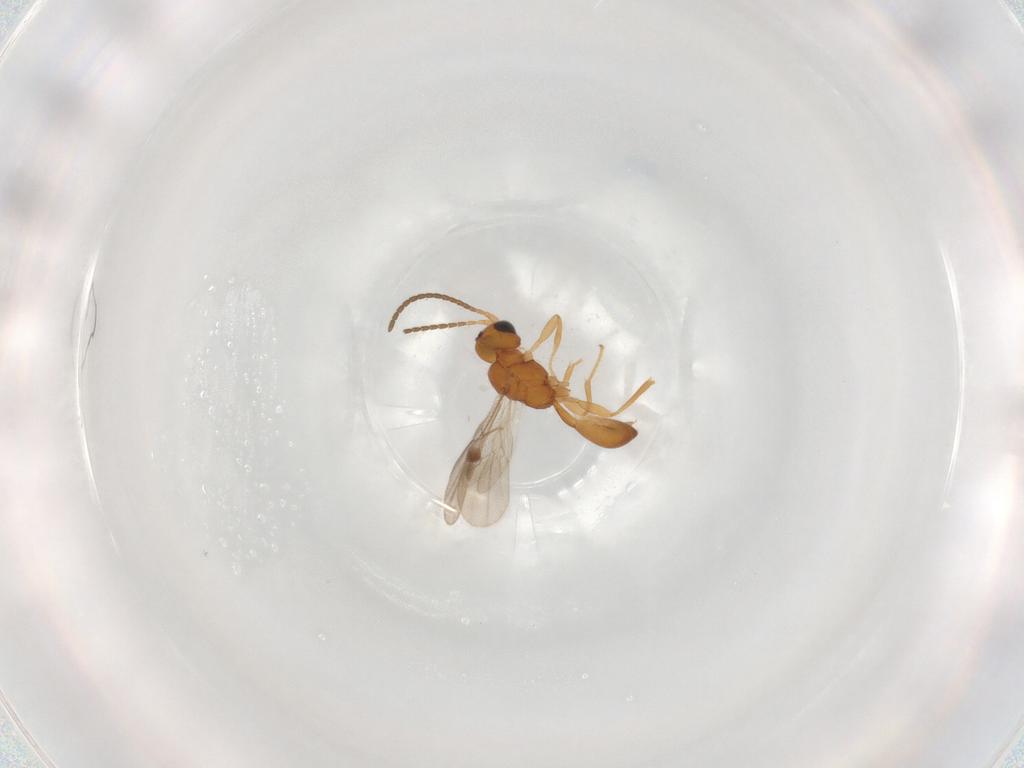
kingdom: Animalia
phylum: Arthropoda
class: Insecta
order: Hymenoptera
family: Braconidae
